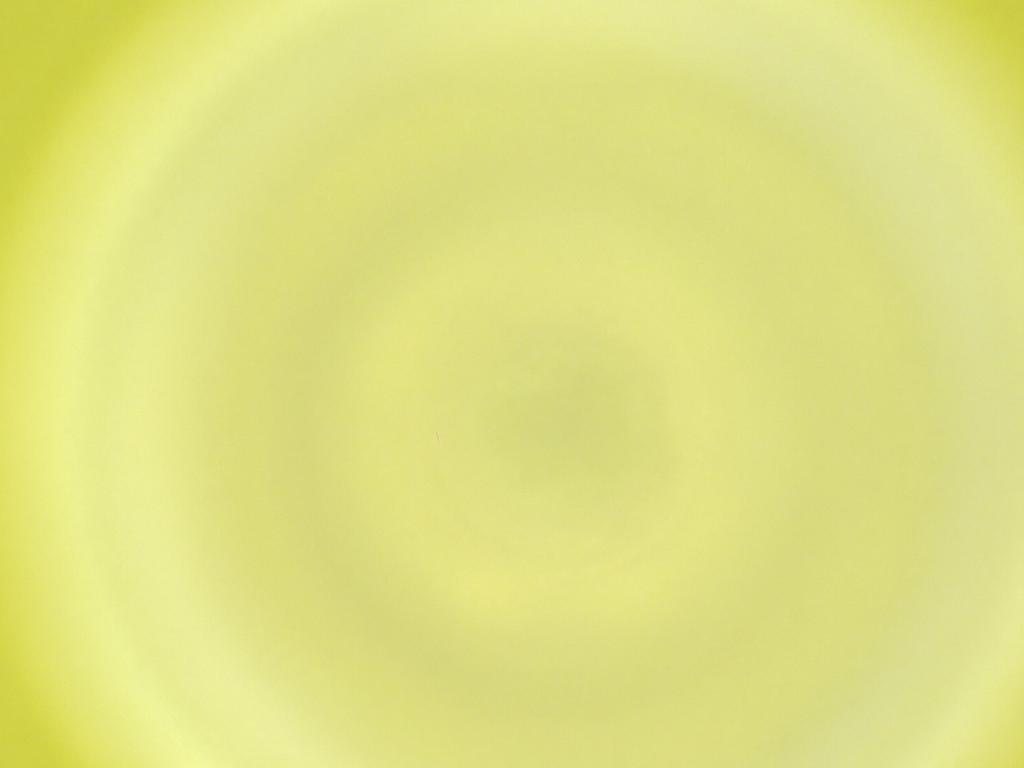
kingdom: Animalia
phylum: Arthropoda
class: Insecta
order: Diptera
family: Cecidomyiidae
